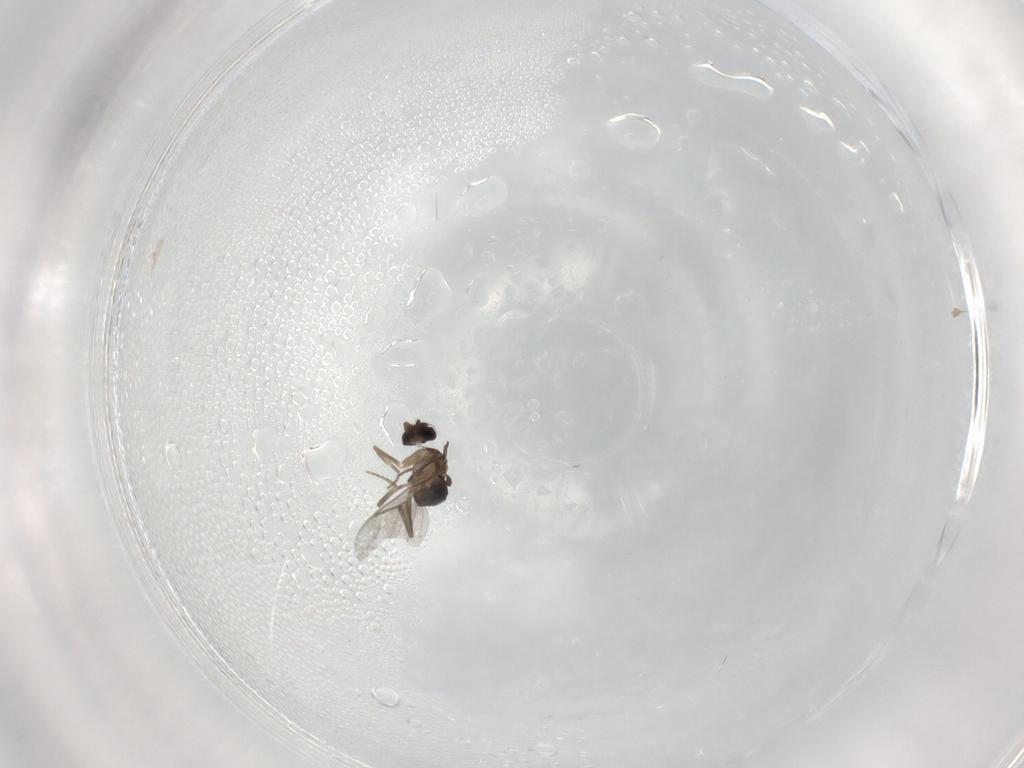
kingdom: Animalia
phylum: Arthropoda
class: Insecta
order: Diptera
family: Cecidomyiidae
